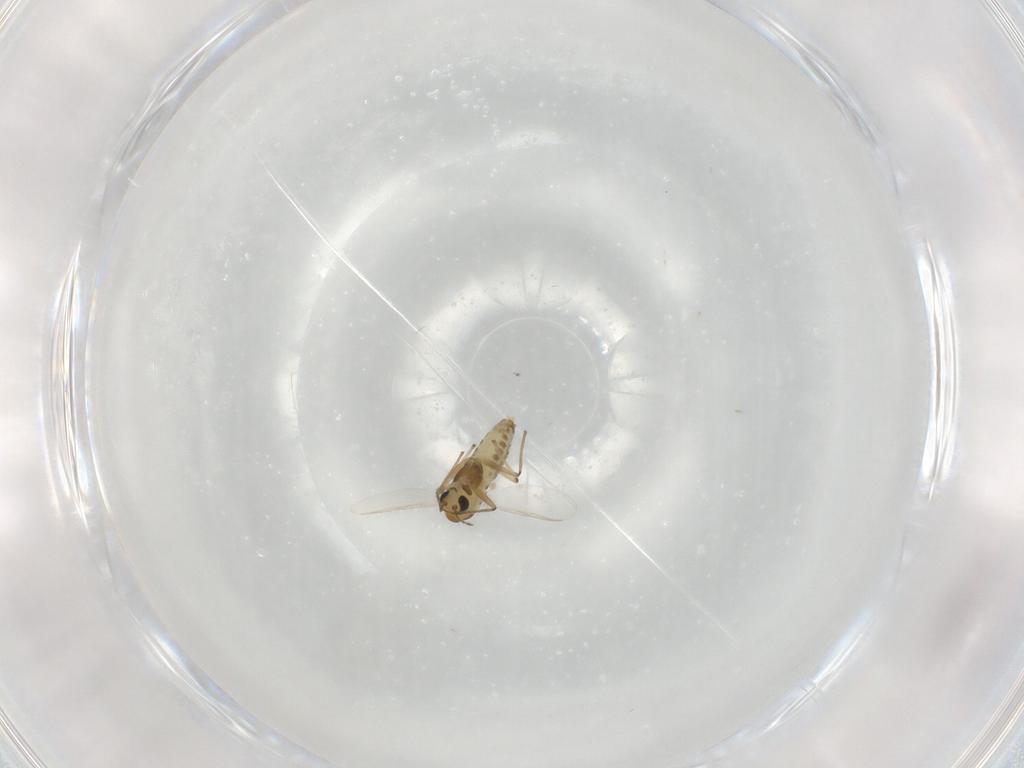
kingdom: Animalia
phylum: Arthropoda
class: Insecta
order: Diptera
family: Chironomidae
